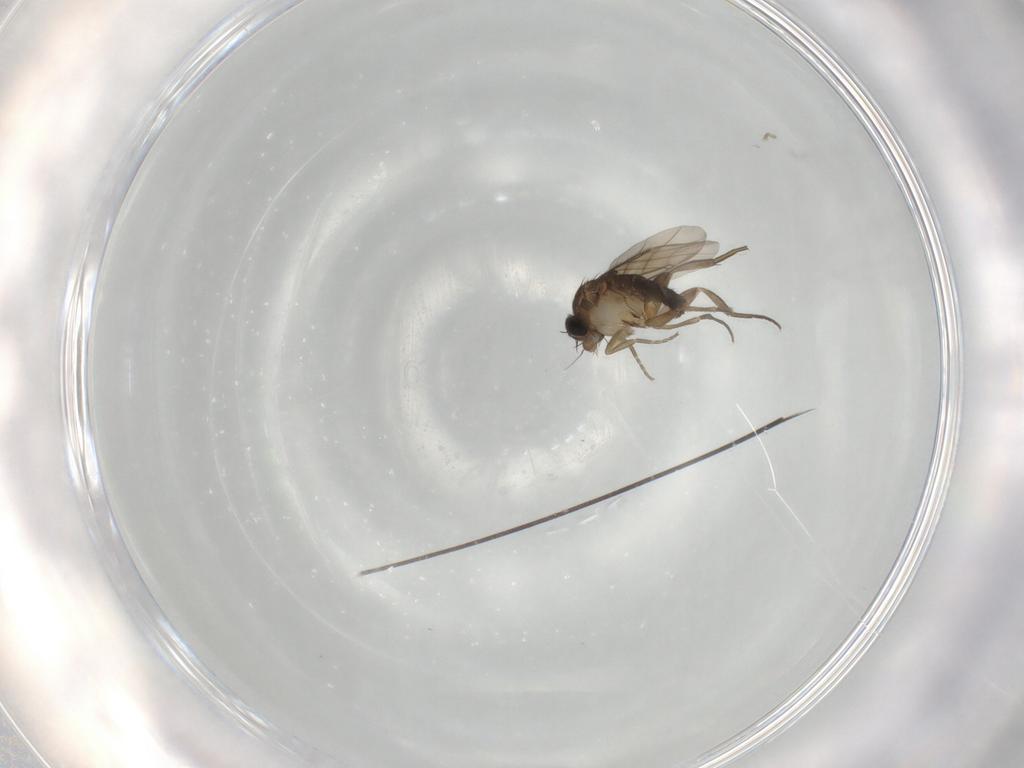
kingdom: Animalia
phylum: Arthropoda
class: Insecta
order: Diptera
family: Phoridae
